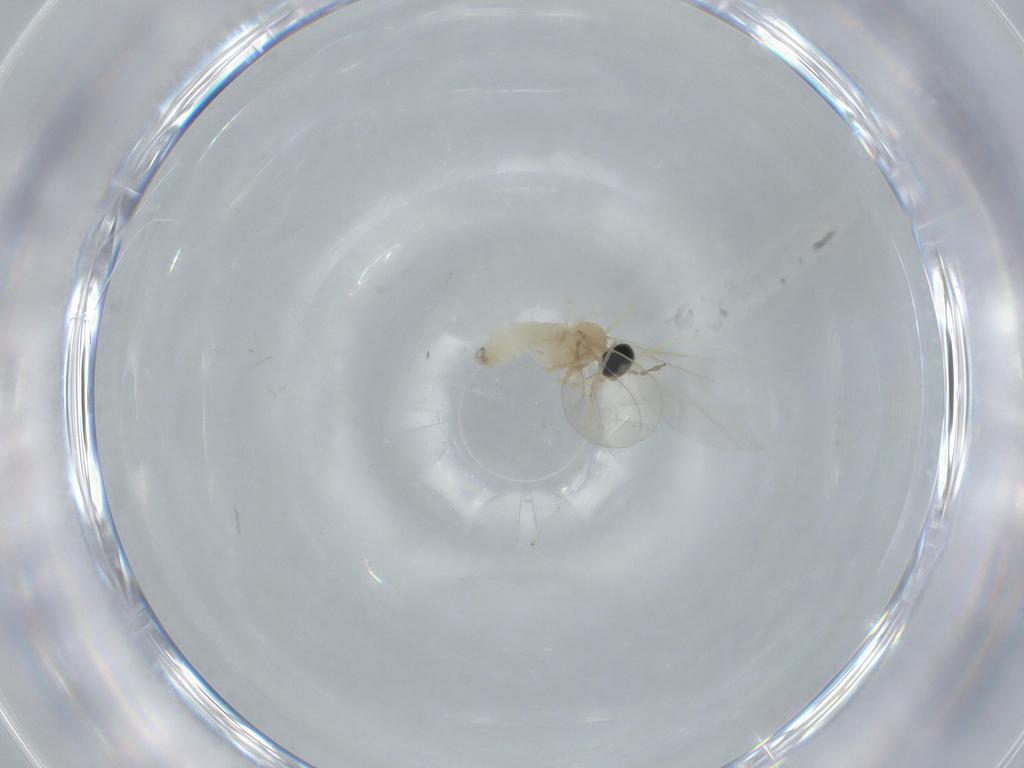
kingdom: Animalia
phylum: Arthropoda
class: Insecta
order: Diptera
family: Cecidomyiidae
